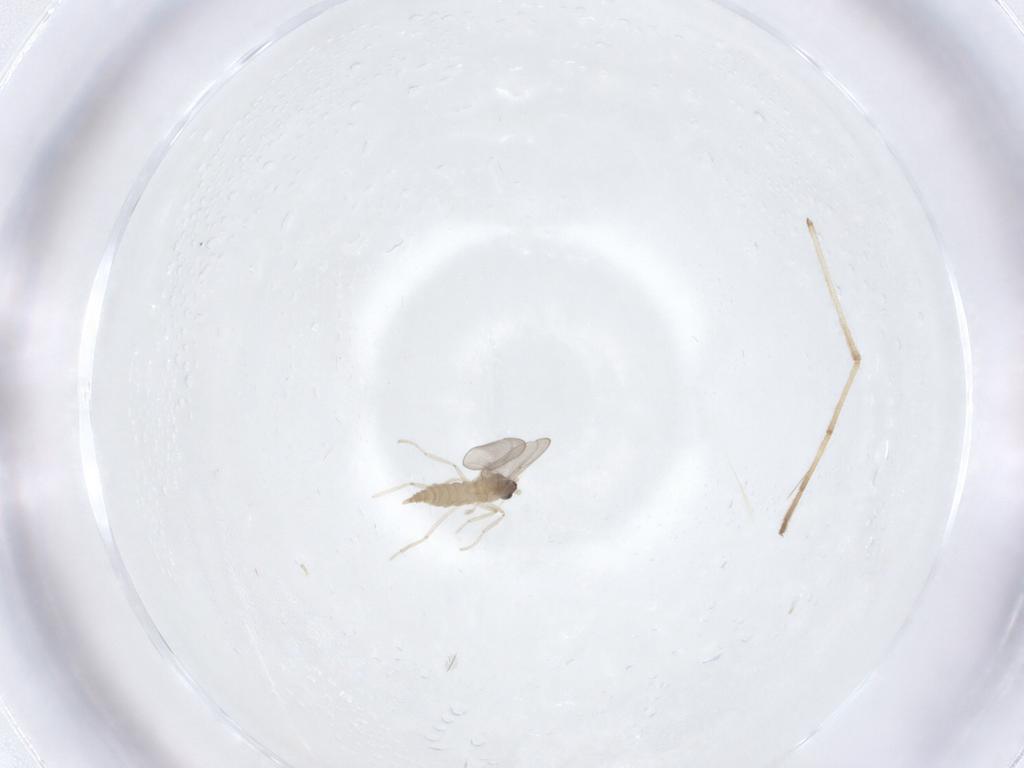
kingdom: Animalia
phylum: Arthropoda
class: Insecta
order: Diptera
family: Cecidomyiidae
